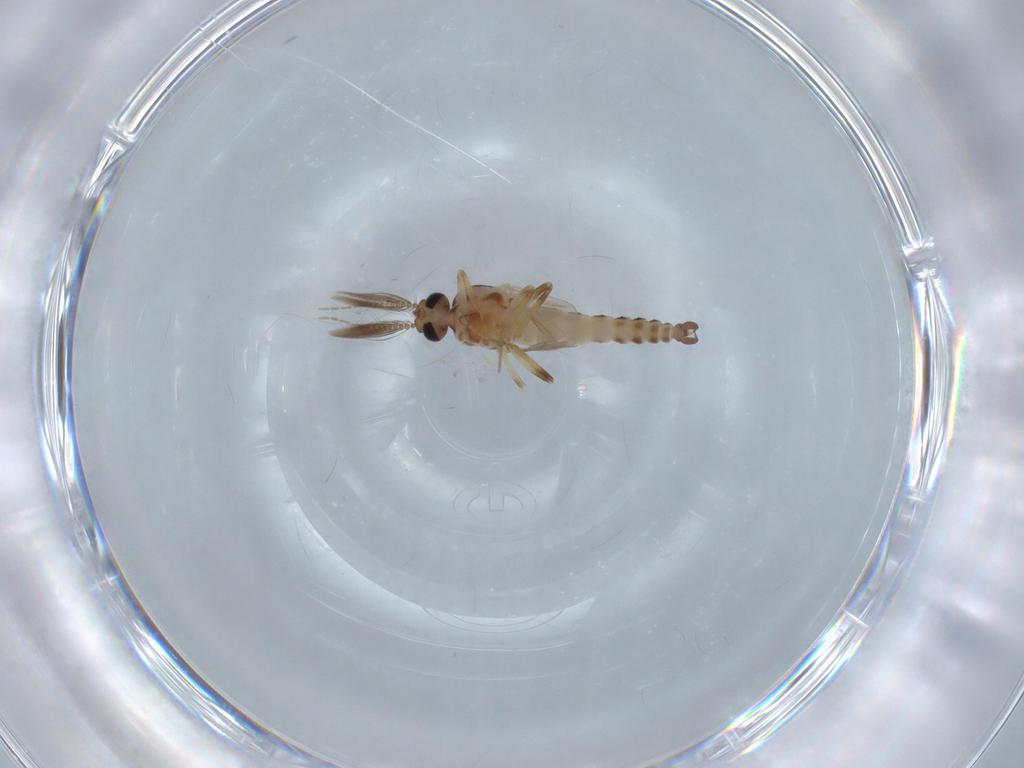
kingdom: Animalia
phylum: Arthropoda
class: Insecta
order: Diptera
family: Ceratopogonidae
